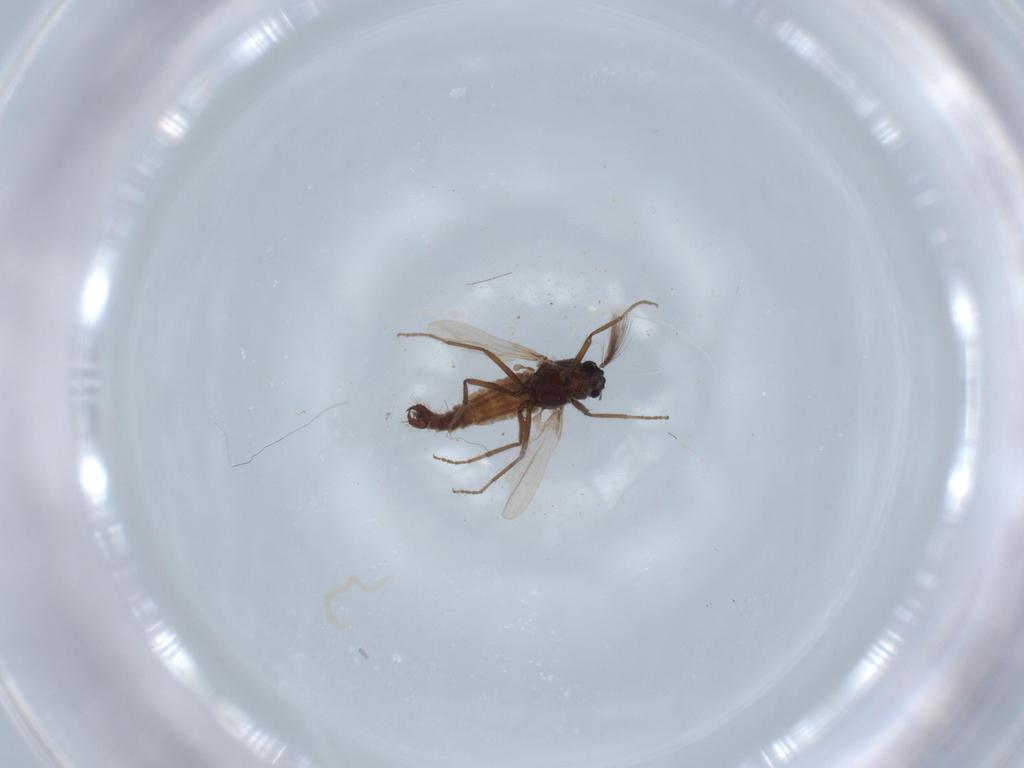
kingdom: Animalia
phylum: Arthropoda
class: Insecta
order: Diptera
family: Ceratopogonidae
